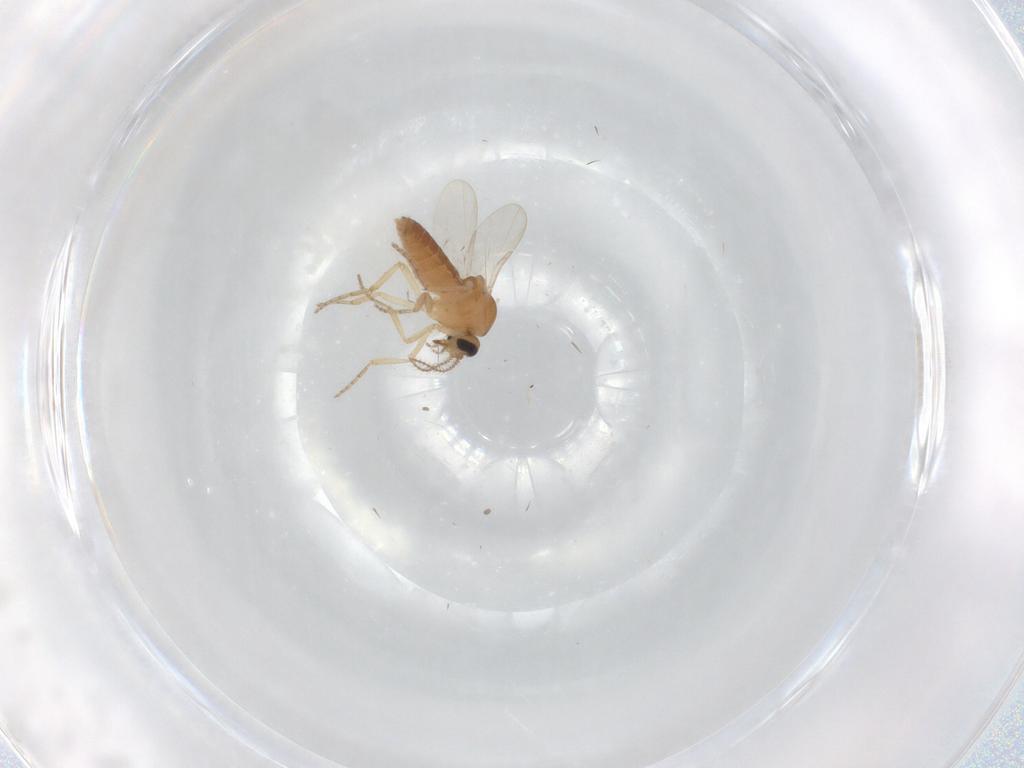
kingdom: Animalia
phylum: Arthropoda
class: Insecta
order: Diptera
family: Ceratopogonidae
